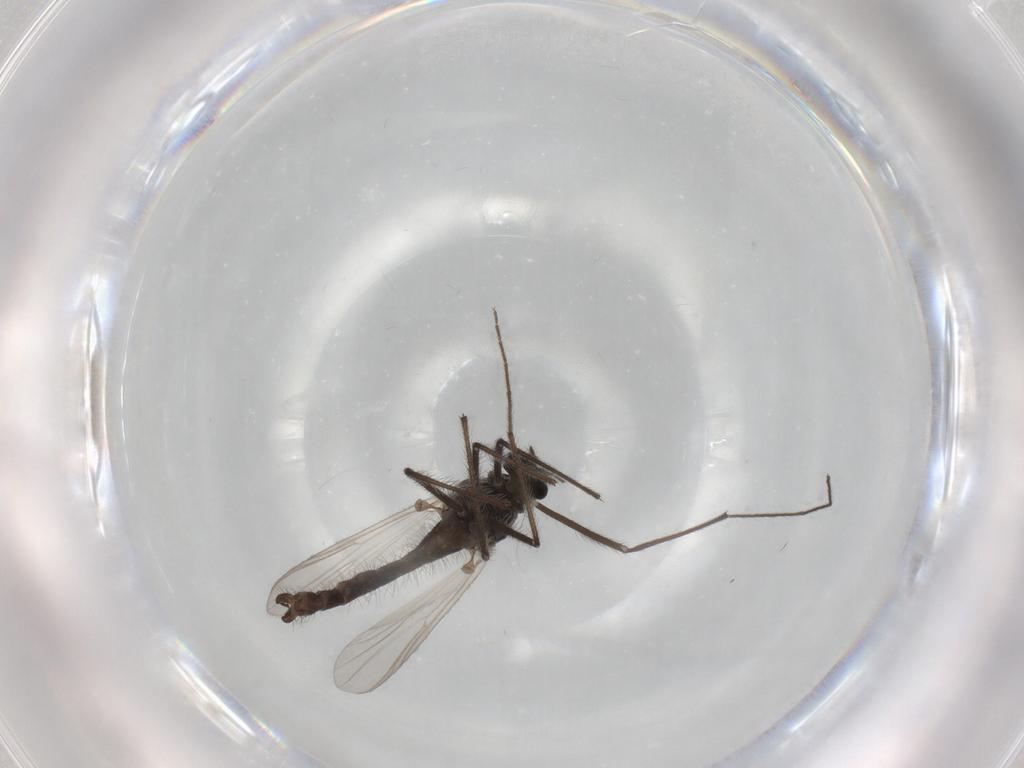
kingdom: Animalia
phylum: Arthropoda
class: Insecta
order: Diptera
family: Chironomidae
